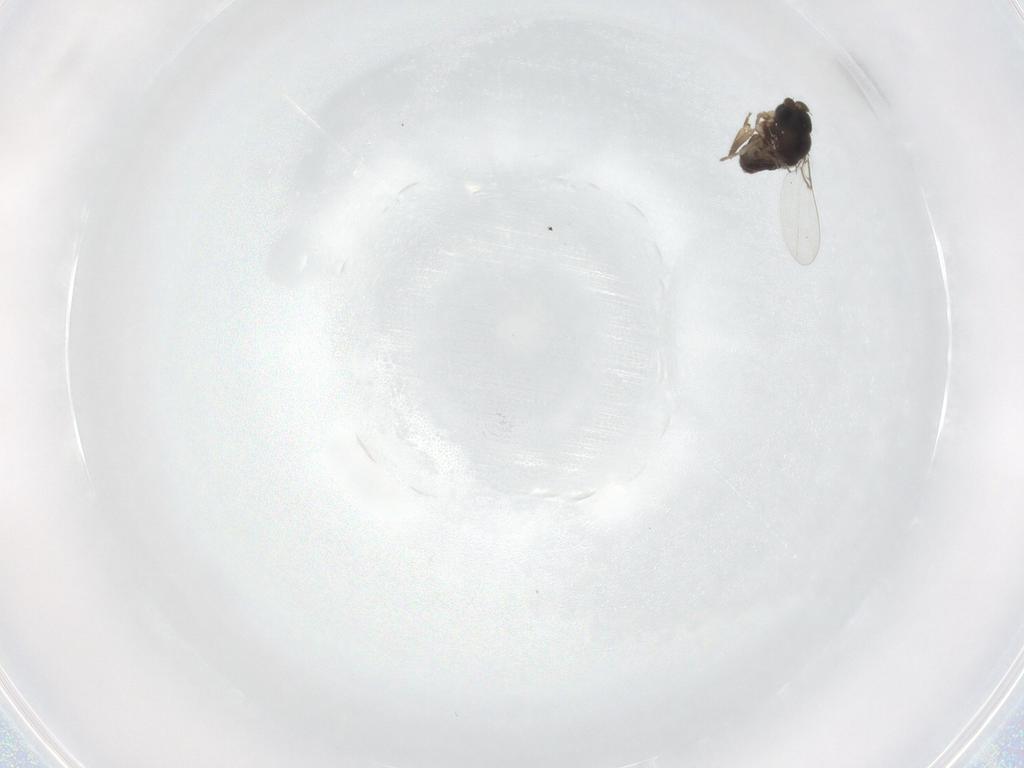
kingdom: Animalia
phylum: Arthropoda
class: Insecta
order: Diptera
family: Phoridae
